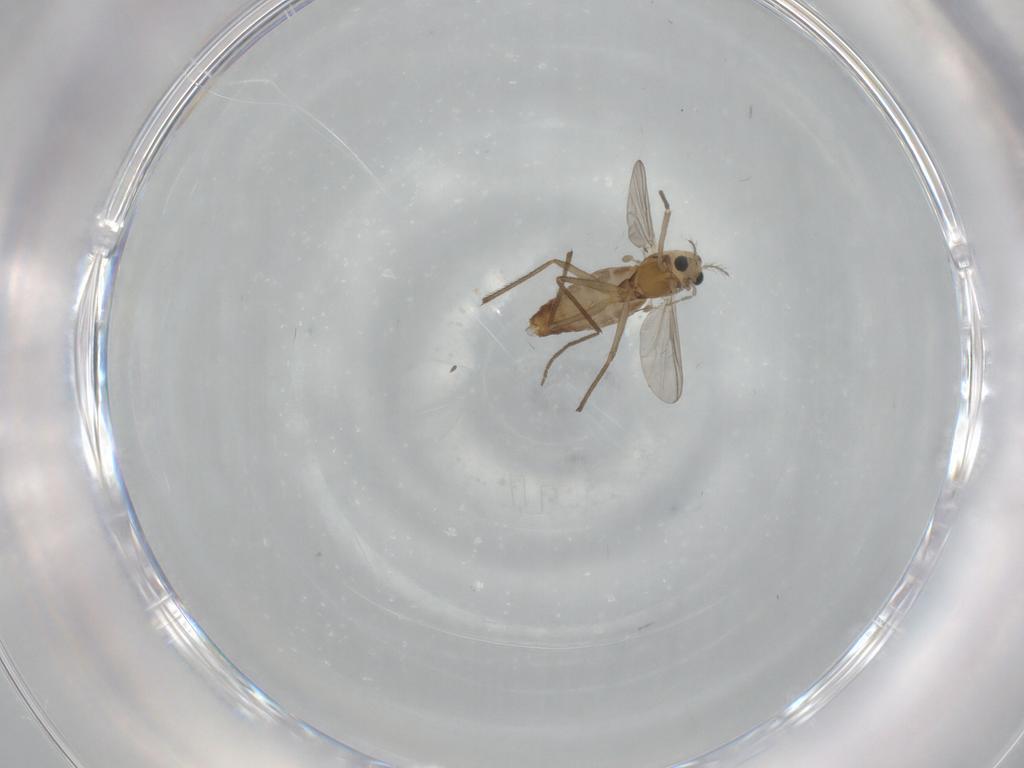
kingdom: Animalia
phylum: Arthropoda
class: Insecta
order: Diptera
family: Chironomidae
